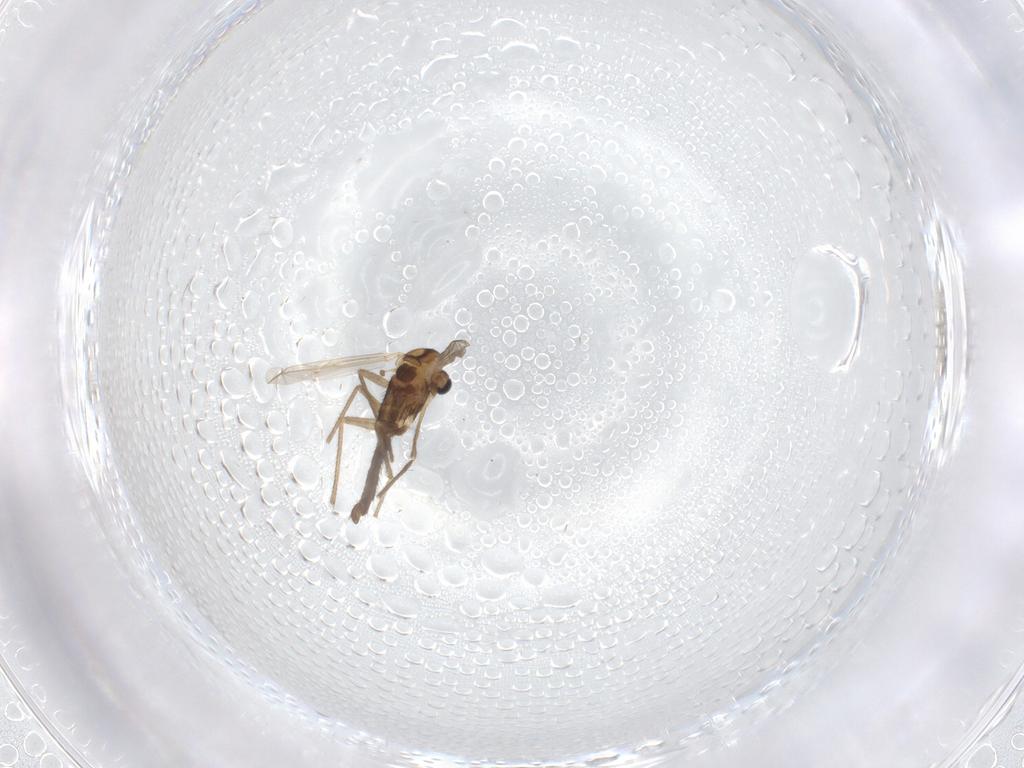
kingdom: Animalia
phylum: Arthropoda
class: Insecta
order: Diptera
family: Chironomidae
